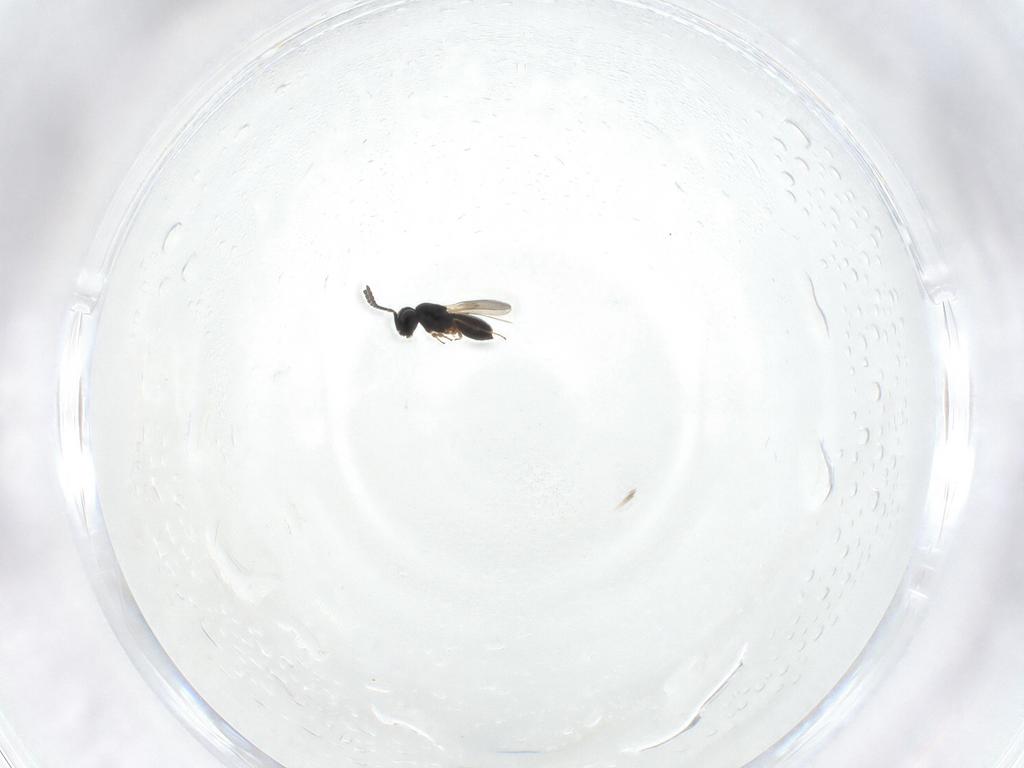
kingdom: Animalia
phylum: Arthropoda
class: Insecta
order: Hymenoptera
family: Scelionidae
